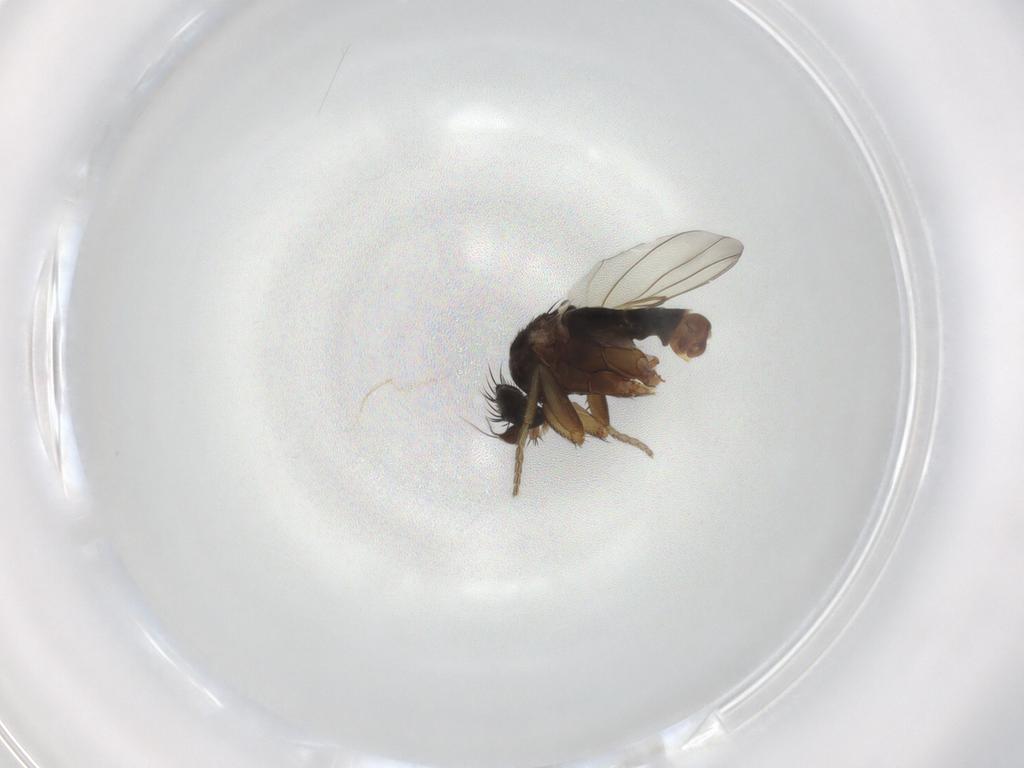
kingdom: Animalia
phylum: Arthropoda
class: Insecta
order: Diptera
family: Phoridae
